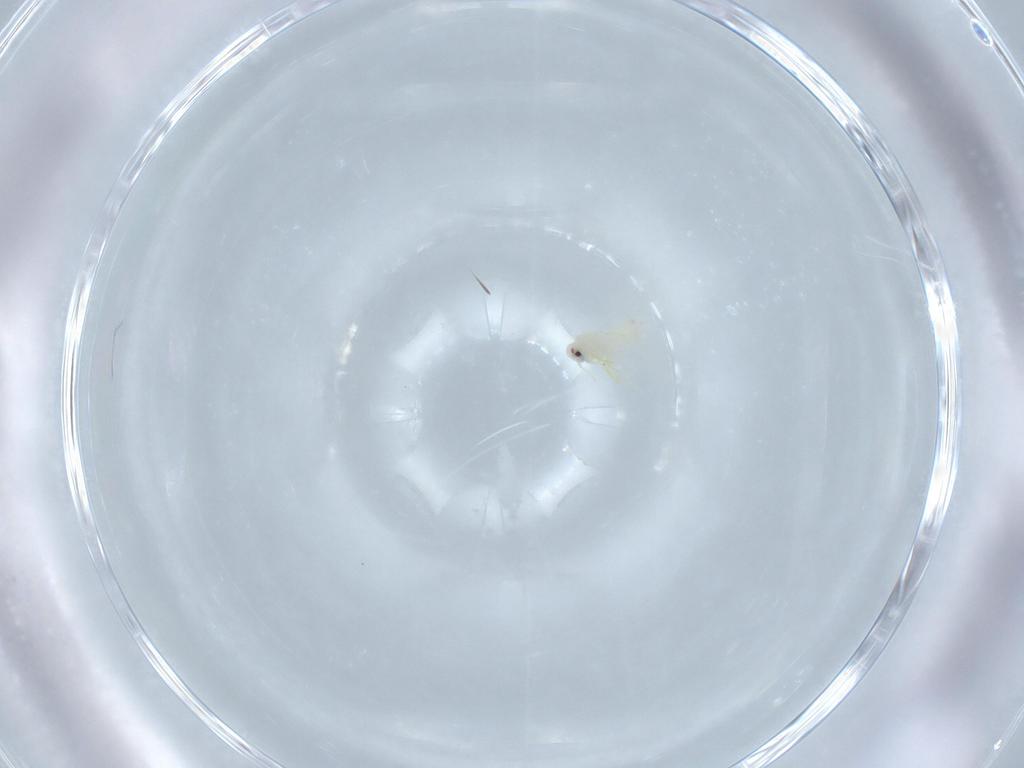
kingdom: Animalia
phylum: Arthropoda
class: Insecta
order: Hemiptera
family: Aleyrodidae
